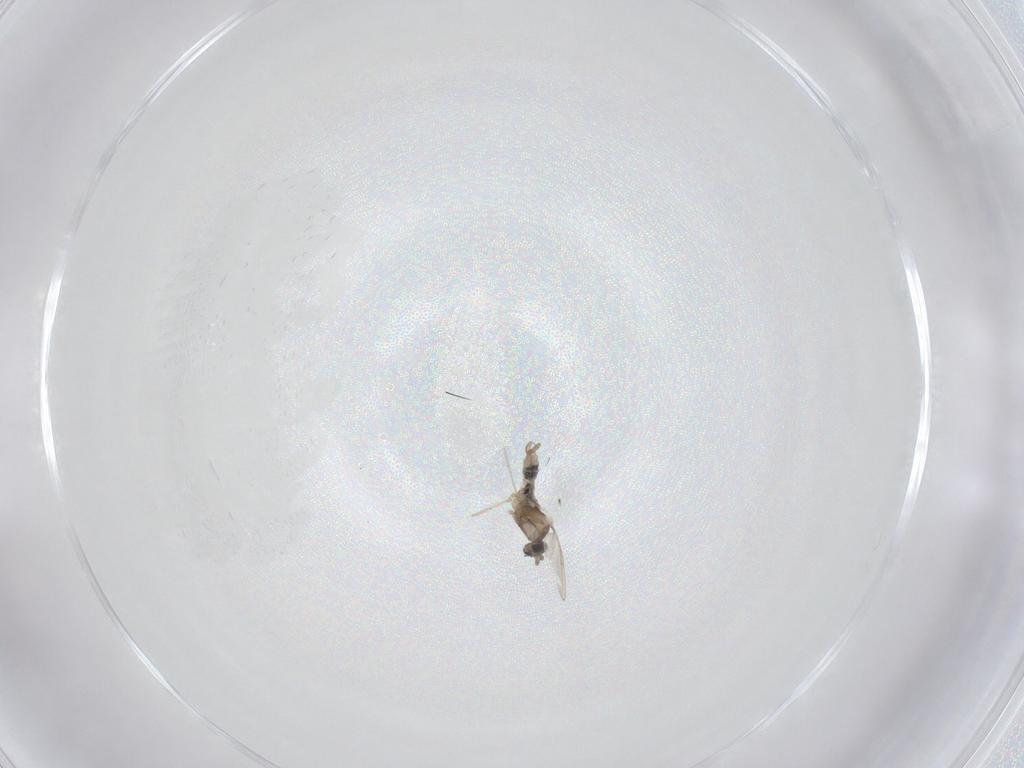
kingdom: Animalia
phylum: Arthropoda
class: Insecta
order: Diptera
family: Cecidomyiidae
